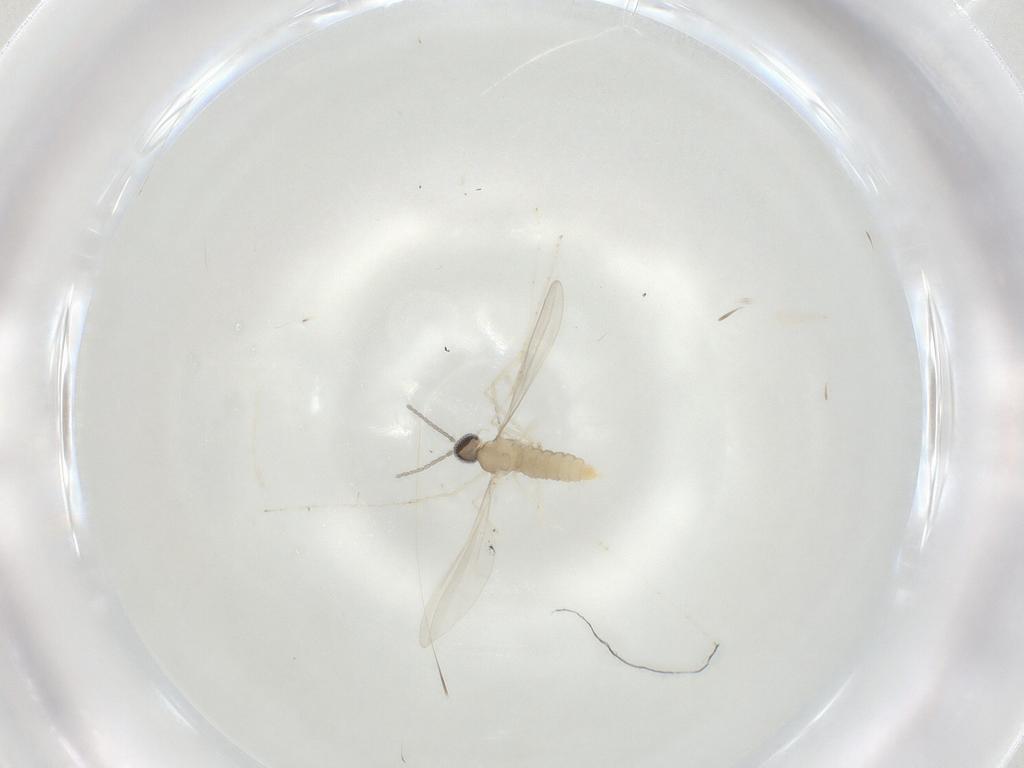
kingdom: Animalia
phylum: Arthropoda
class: Insecta
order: Diptera
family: Cecidomyiidae
